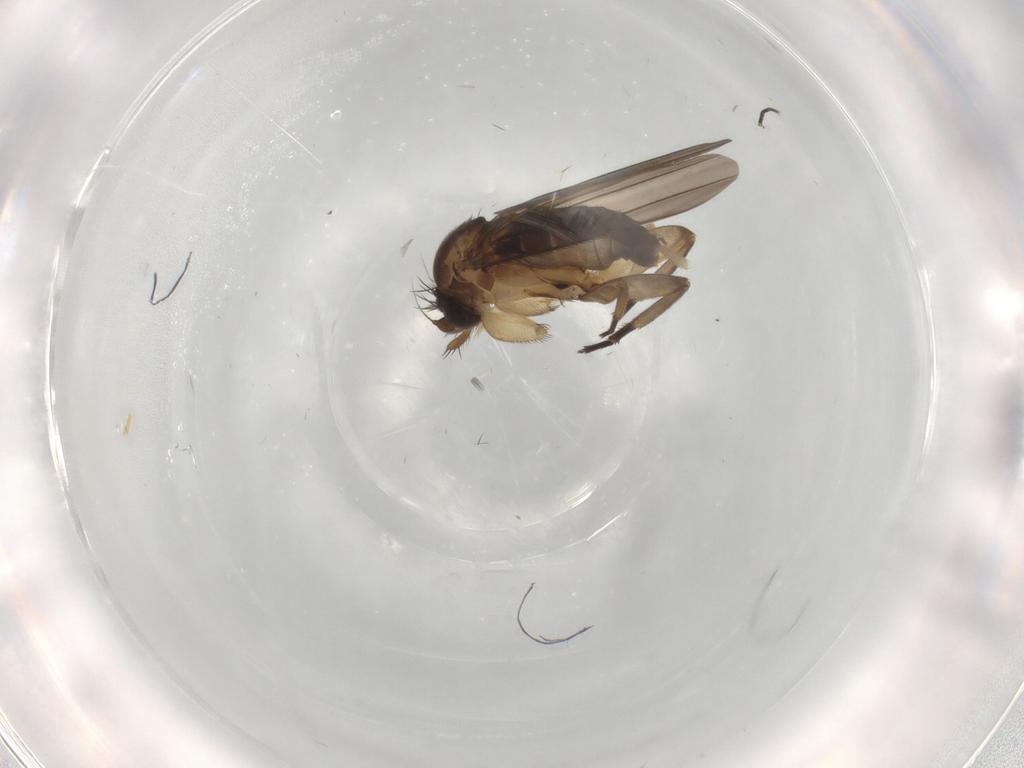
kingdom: Animalia
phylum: Arthropoda
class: Insecta
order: Diptera
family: Phoridae
